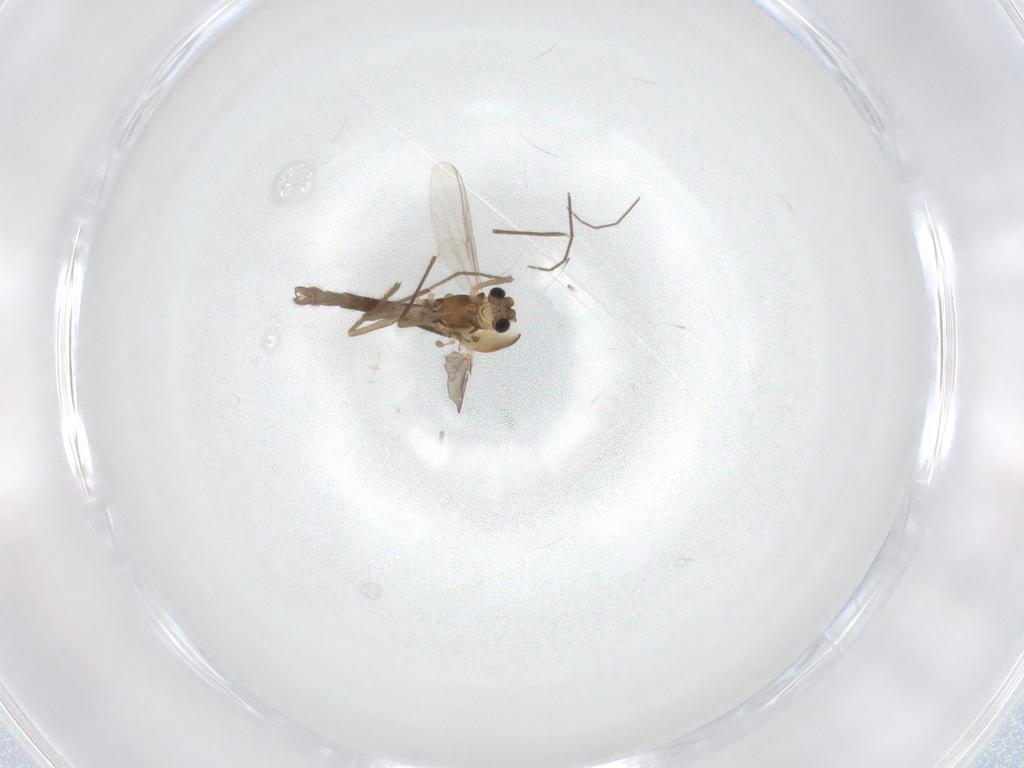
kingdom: Animalia
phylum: Arthropoda
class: Insecta
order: Diptera
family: Chironomidae
